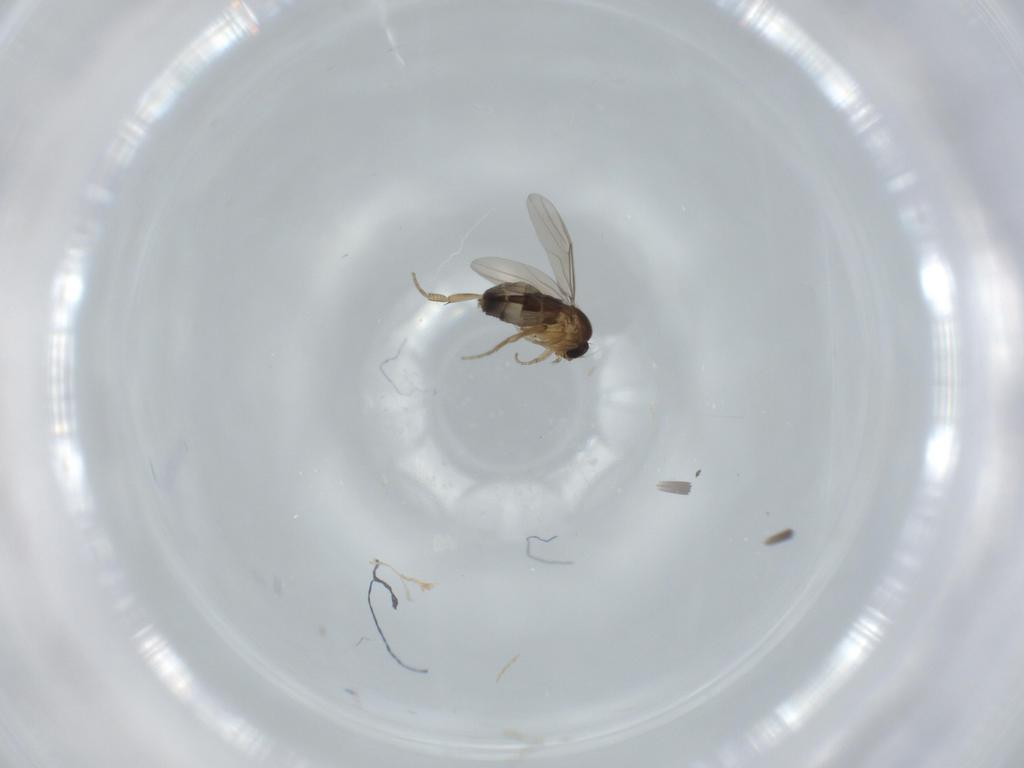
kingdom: Animalia
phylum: Arthropoda
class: Insecta
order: Diptera
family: Phoridae
